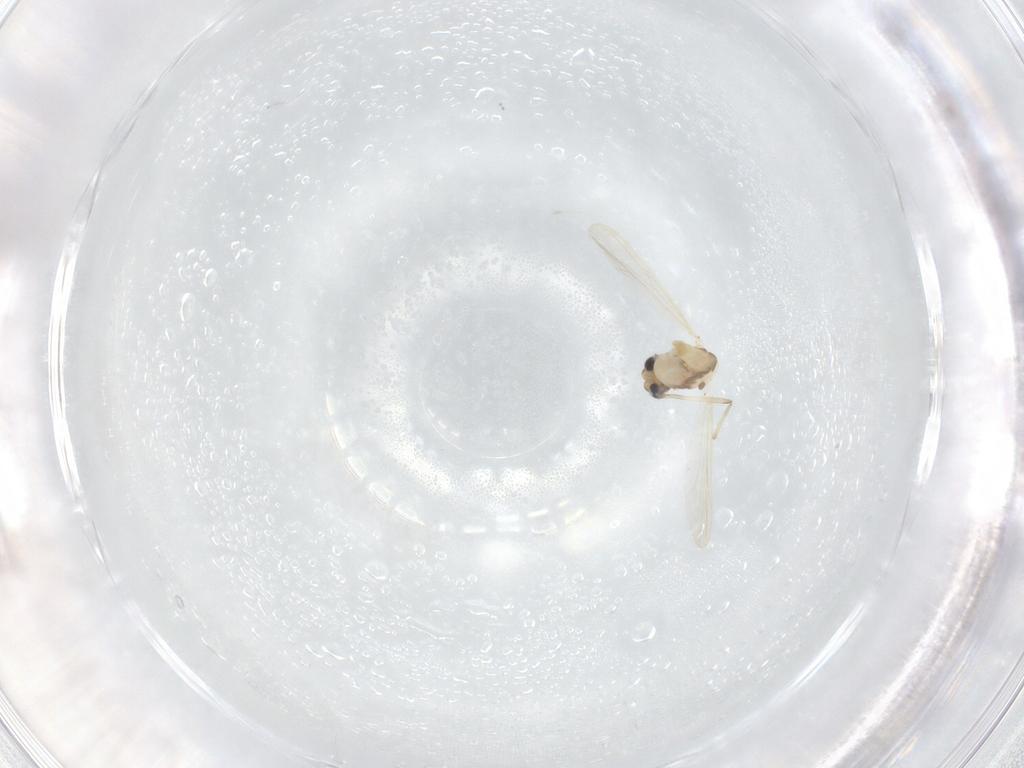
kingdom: Animalia
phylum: Arthropoda
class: Insecta
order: Diptera
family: Chironomidae
